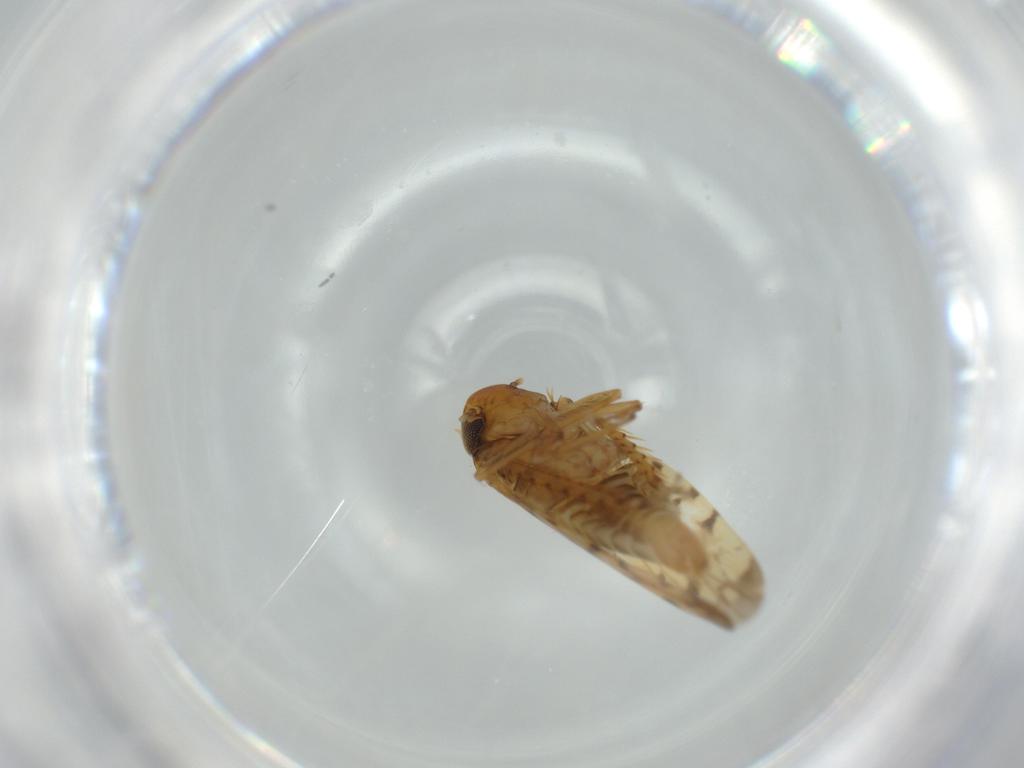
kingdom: Animalia
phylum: Arthropoda
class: Insecta
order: Hemiptera
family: Cicadellidae
